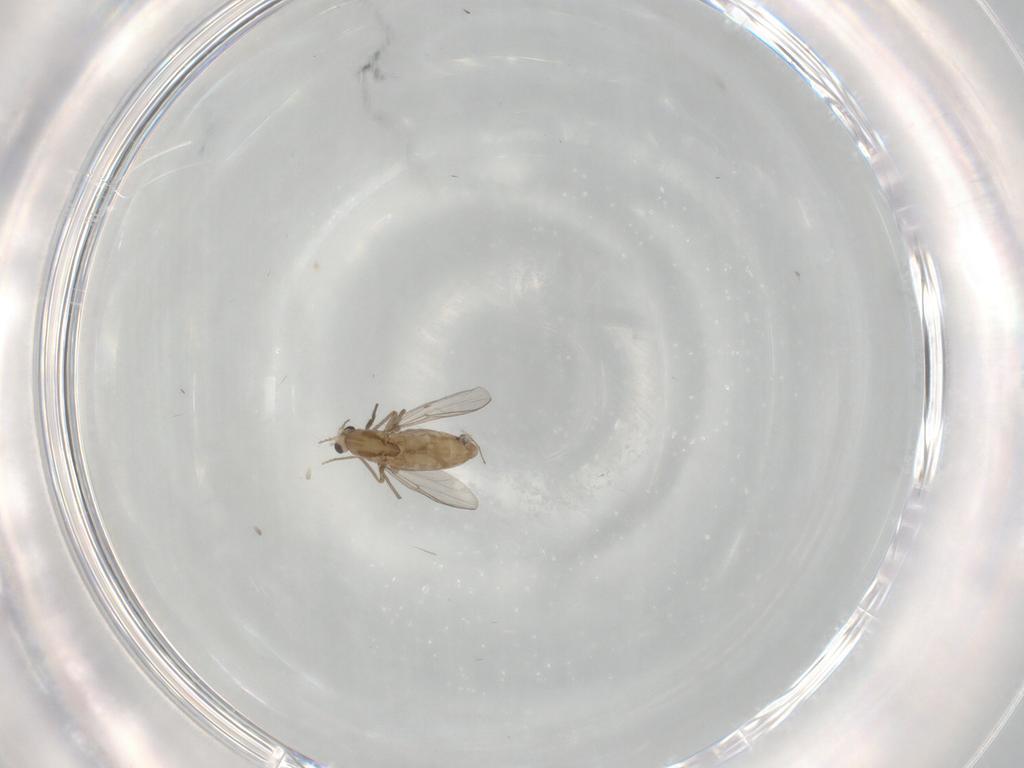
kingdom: Animalia
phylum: Arthropoda
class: Insecta
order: Diptera
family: Chironomidae
